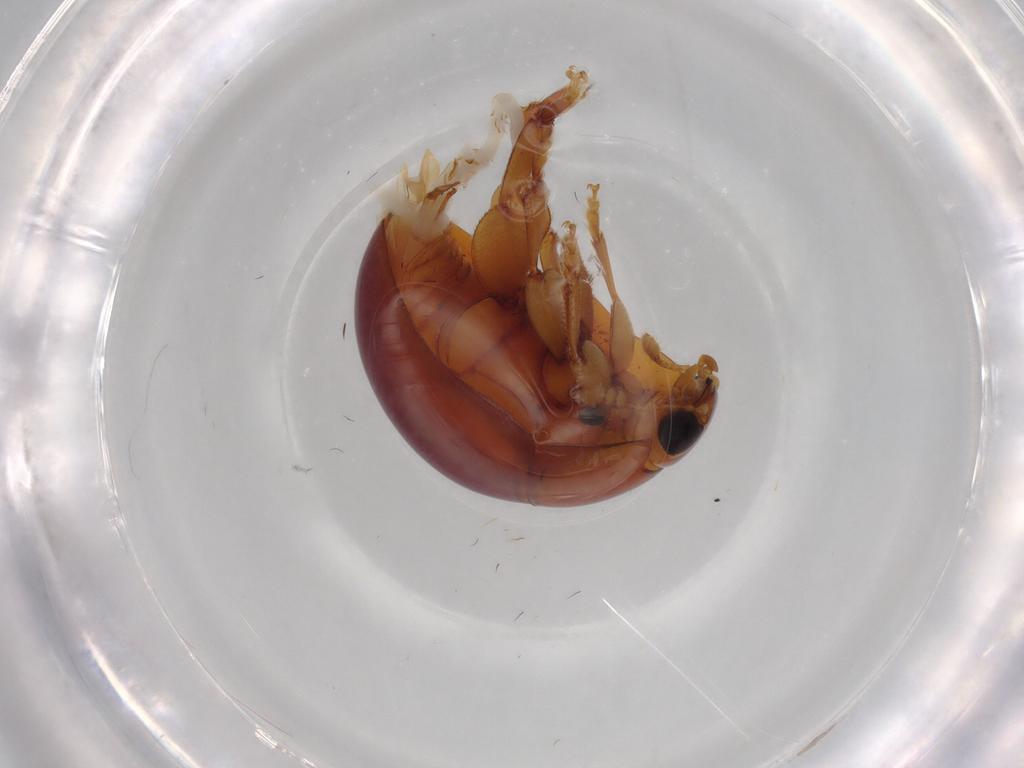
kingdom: Animalia
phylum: Arthropoda
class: Insecta
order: Coleoptera
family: Phalacridae
